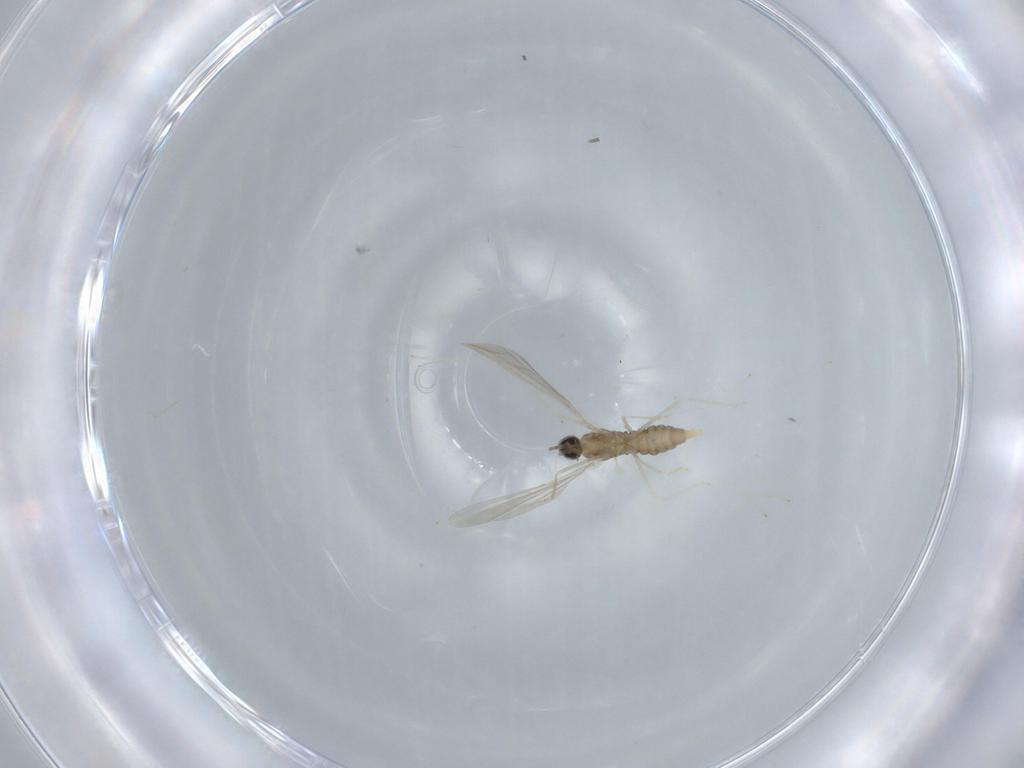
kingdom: Animalia
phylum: Arthropoda
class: Insecta
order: Diptera
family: Cecidomyiidae
